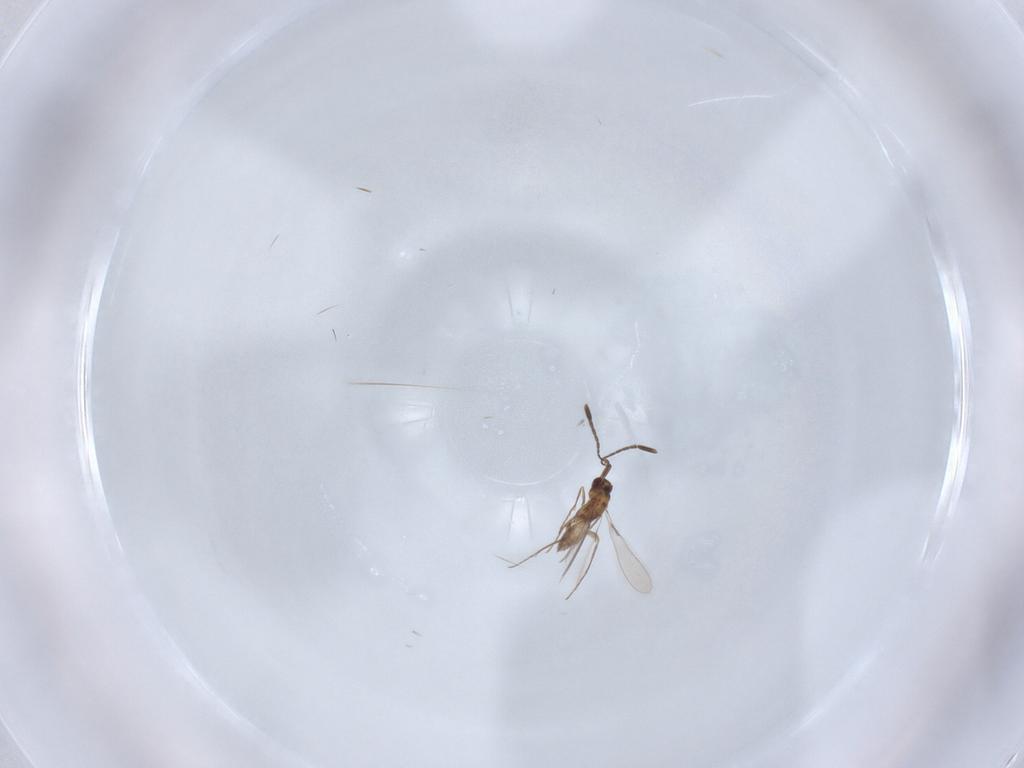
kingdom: Animalia
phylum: Arthropoda
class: Insecta
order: Hymenoptera
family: Mymaridae
